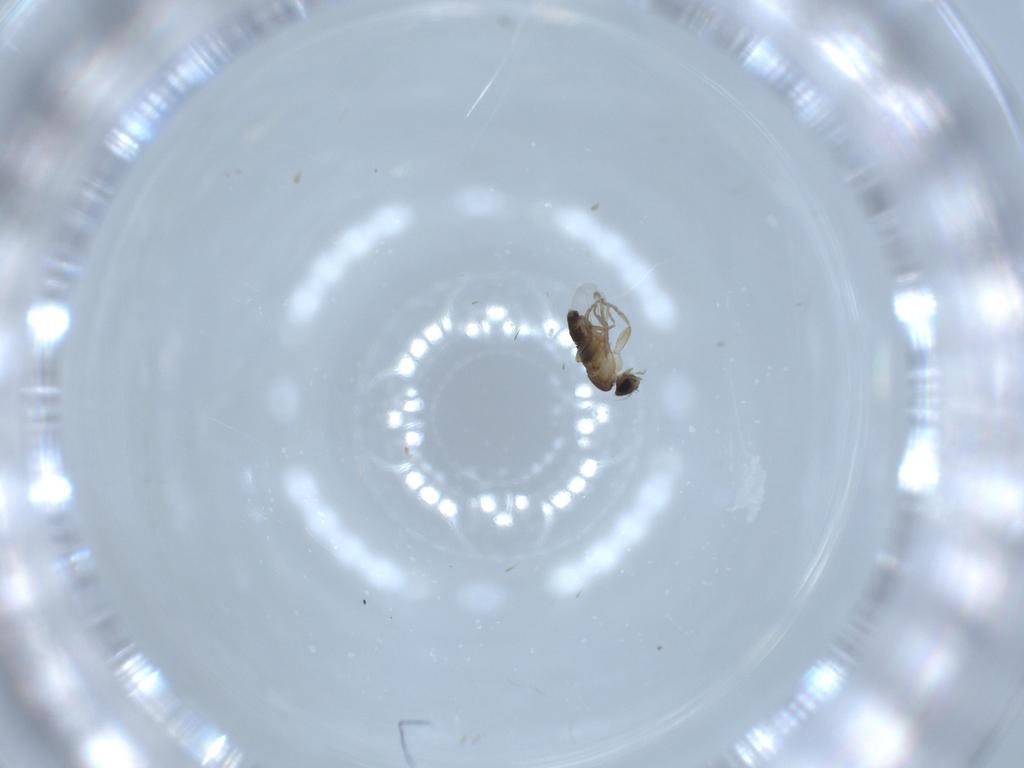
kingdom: Animalia
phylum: Arthropoda
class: Insecta
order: Diptera
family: Phoridae
